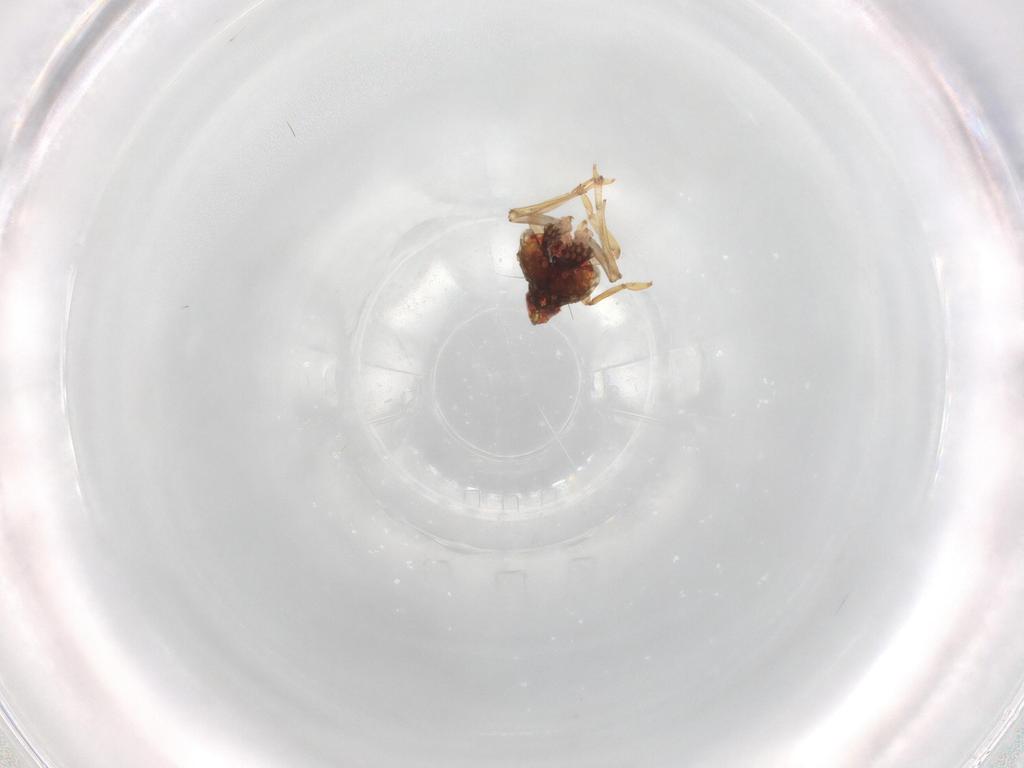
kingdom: Animalia
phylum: Arthropoda
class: Insecta
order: Hemiptera
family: Issidae
